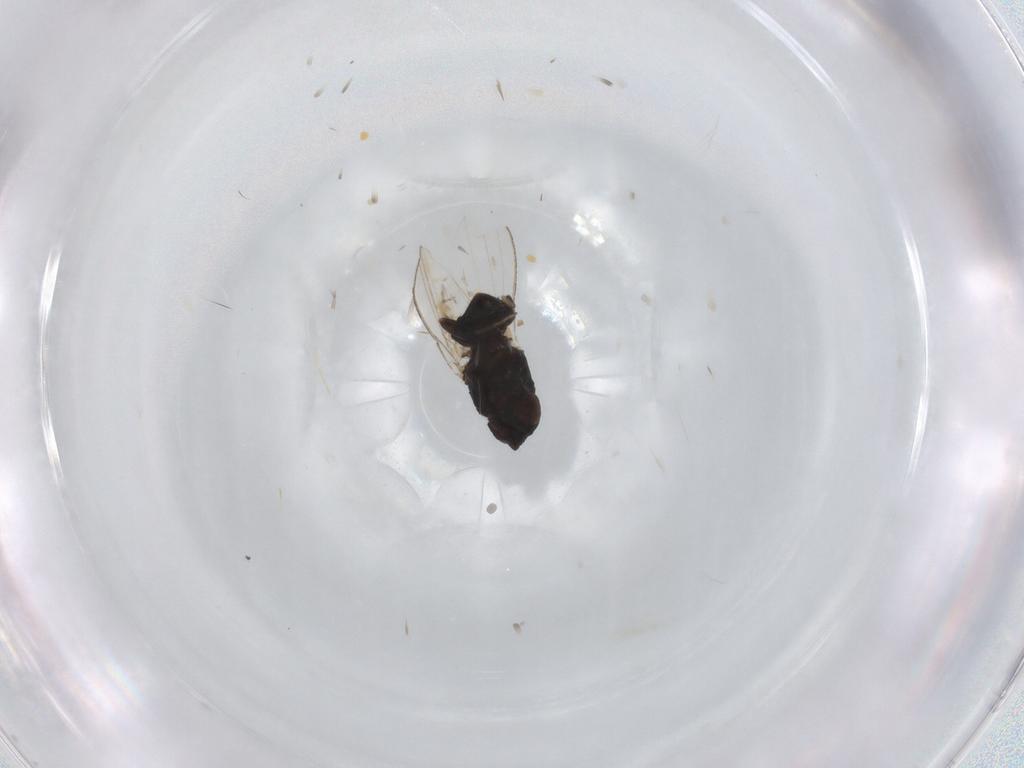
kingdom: Animalia
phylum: Arthropoda
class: Insecta
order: Diptera
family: Milichiidae
